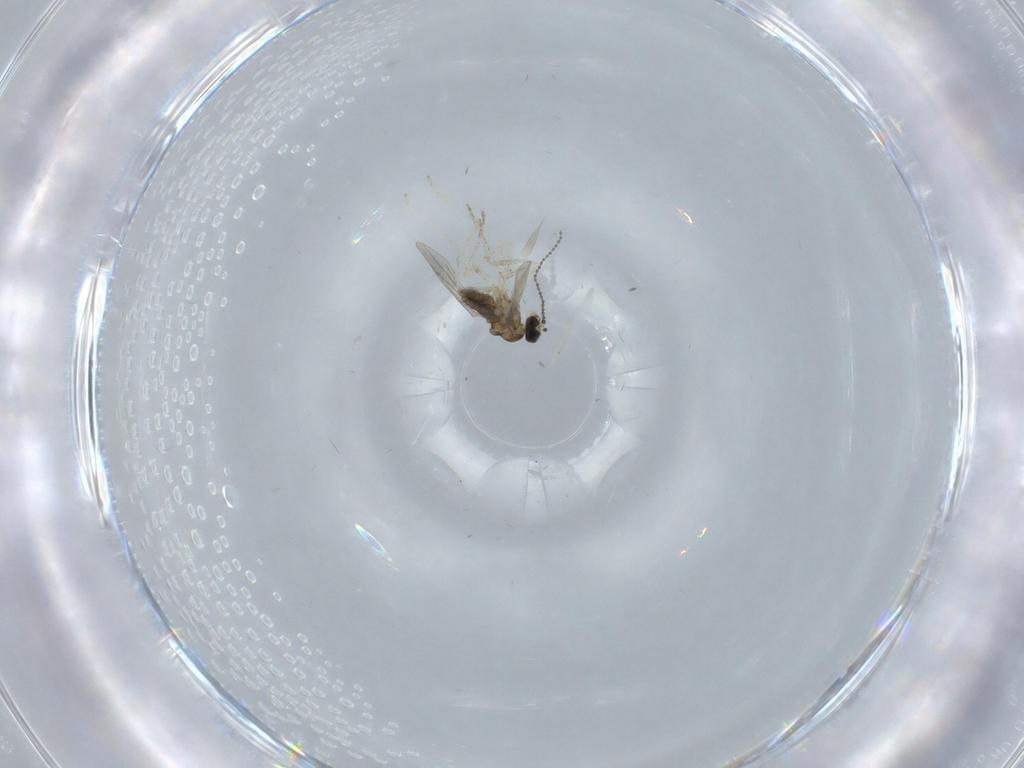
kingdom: Animalia
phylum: Arthropoda
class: Insecta
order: Diptera
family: Cecidomyiidae
